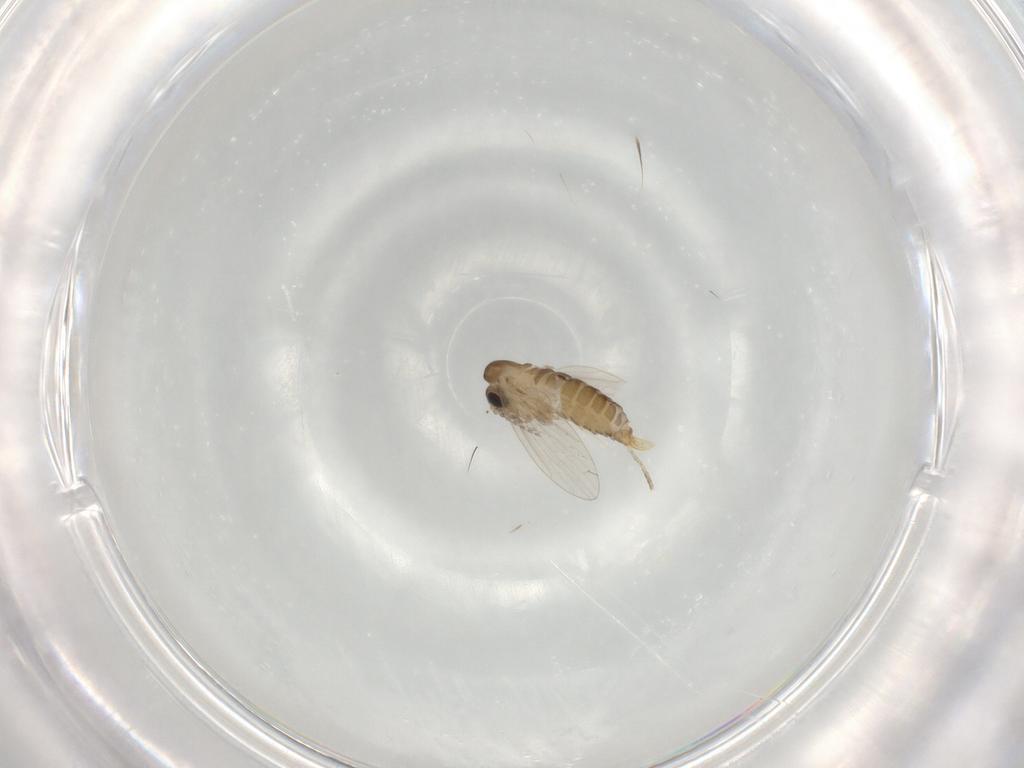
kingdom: Animalia
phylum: Arthropoda
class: Insecta
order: Diptera
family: Psychodidae
